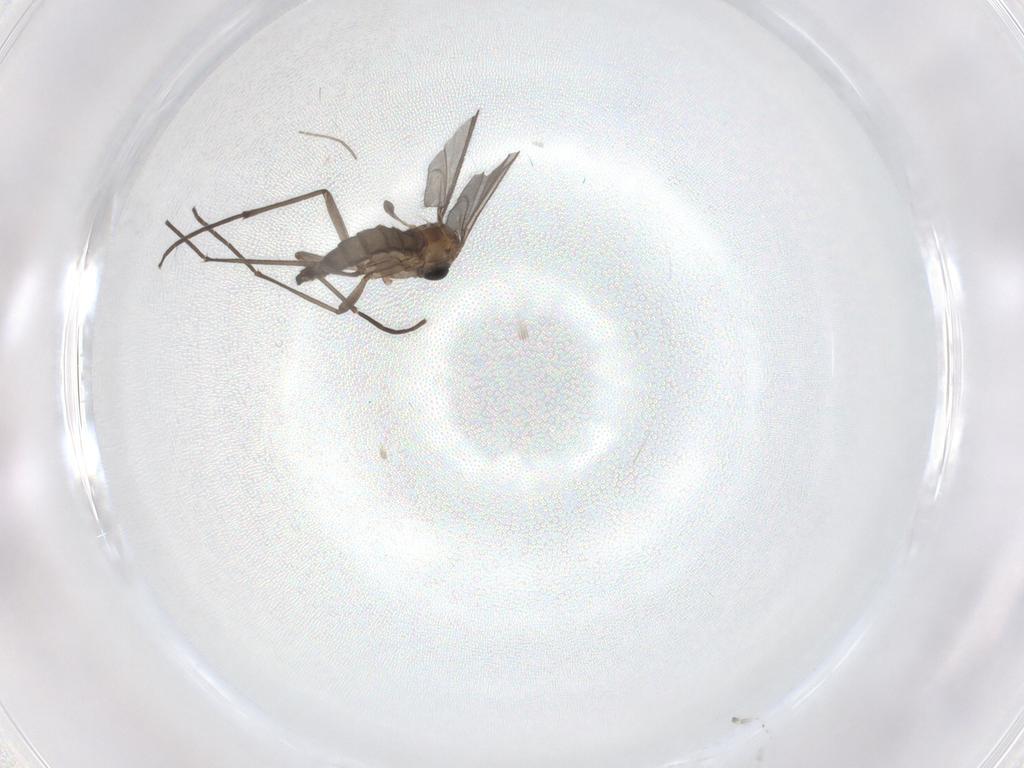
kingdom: Animalia
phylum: Arthropoda
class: Insecta
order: Diptera
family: Sciaridae
